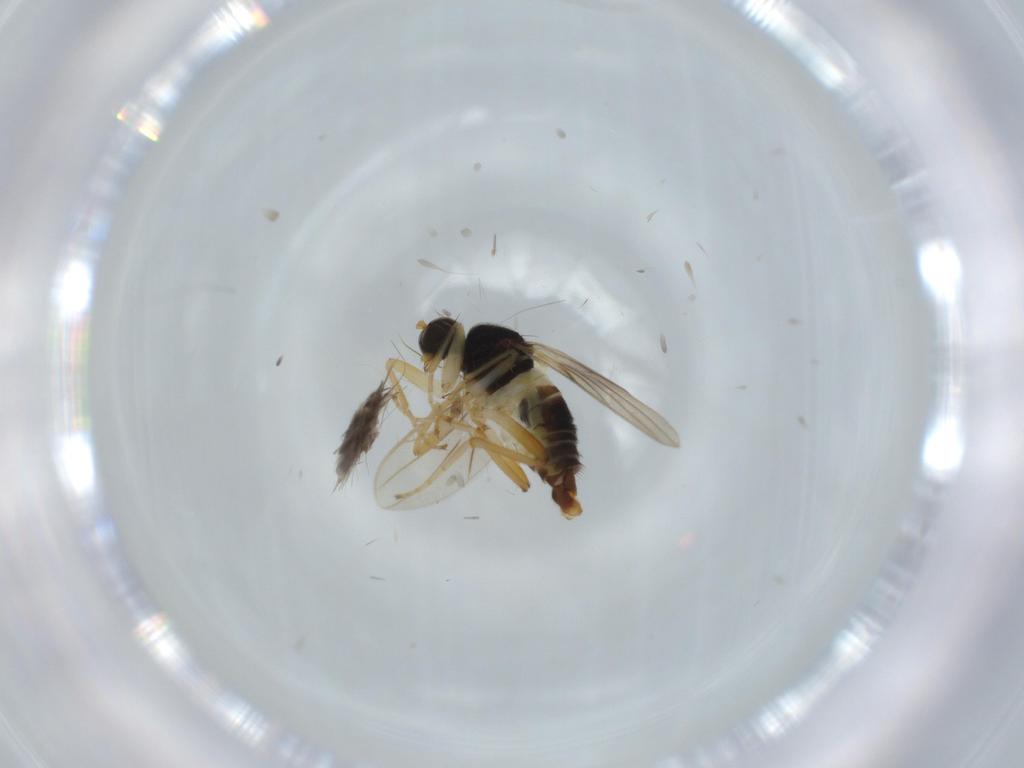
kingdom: Animalia
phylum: Arthropoda
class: Insecta
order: Diptera
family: Hybotidae
